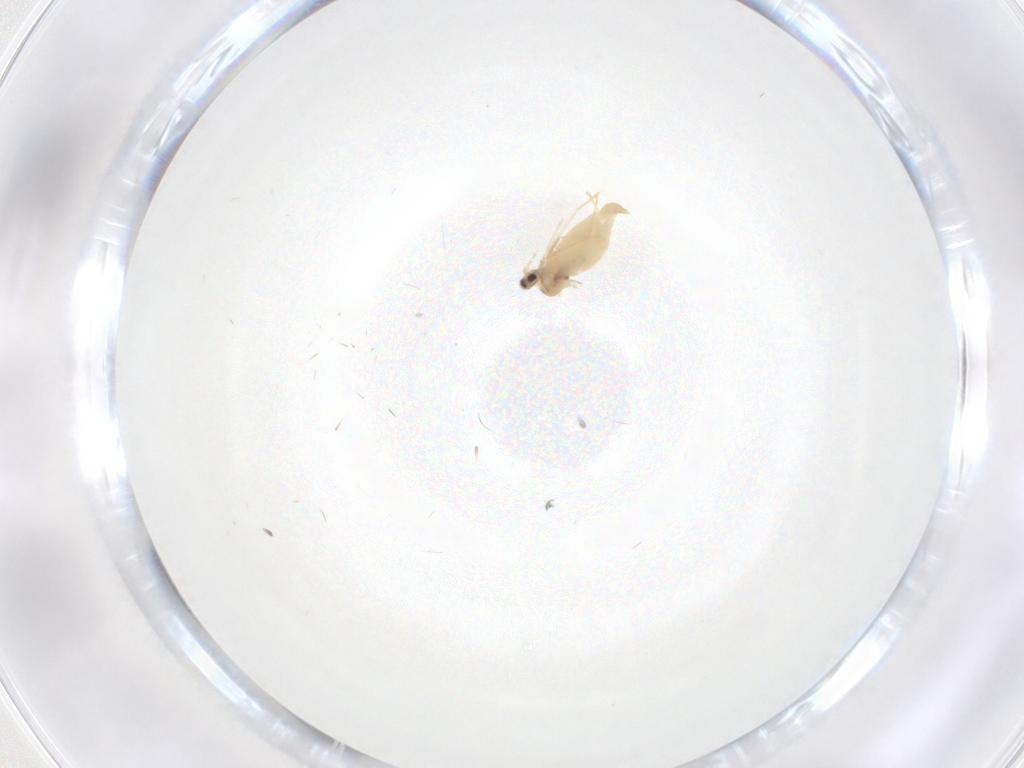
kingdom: Animalia
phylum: Arthropoda
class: Insecta
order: Diptera
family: Cecidomyiidae
